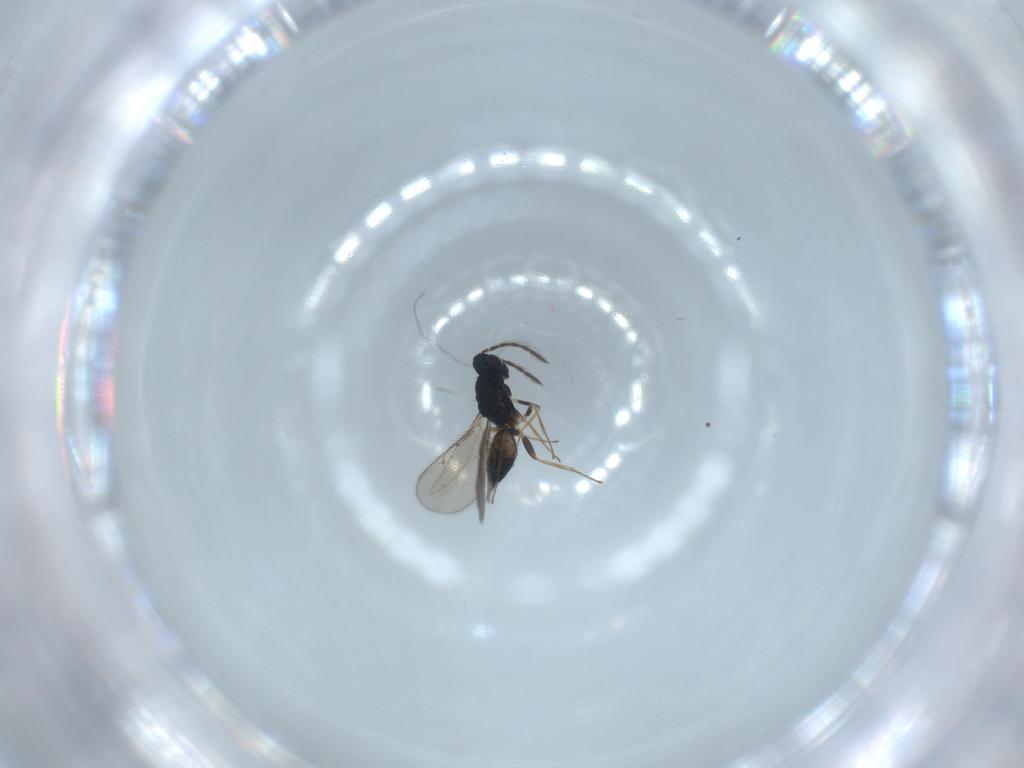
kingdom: Animalia
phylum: Arthropoda
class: Insecta
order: Hymenoptera
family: Eulophidae
